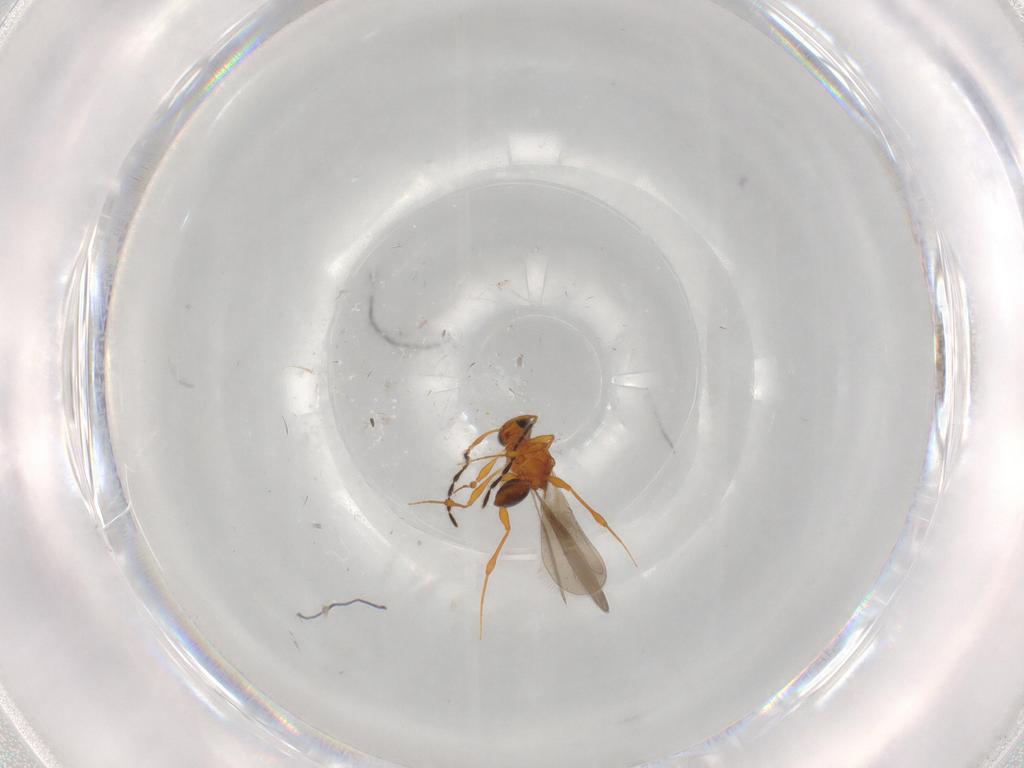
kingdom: Animalia
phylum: Arthropoda
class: Insecta
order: Hymenoptera
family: Platygastridae
